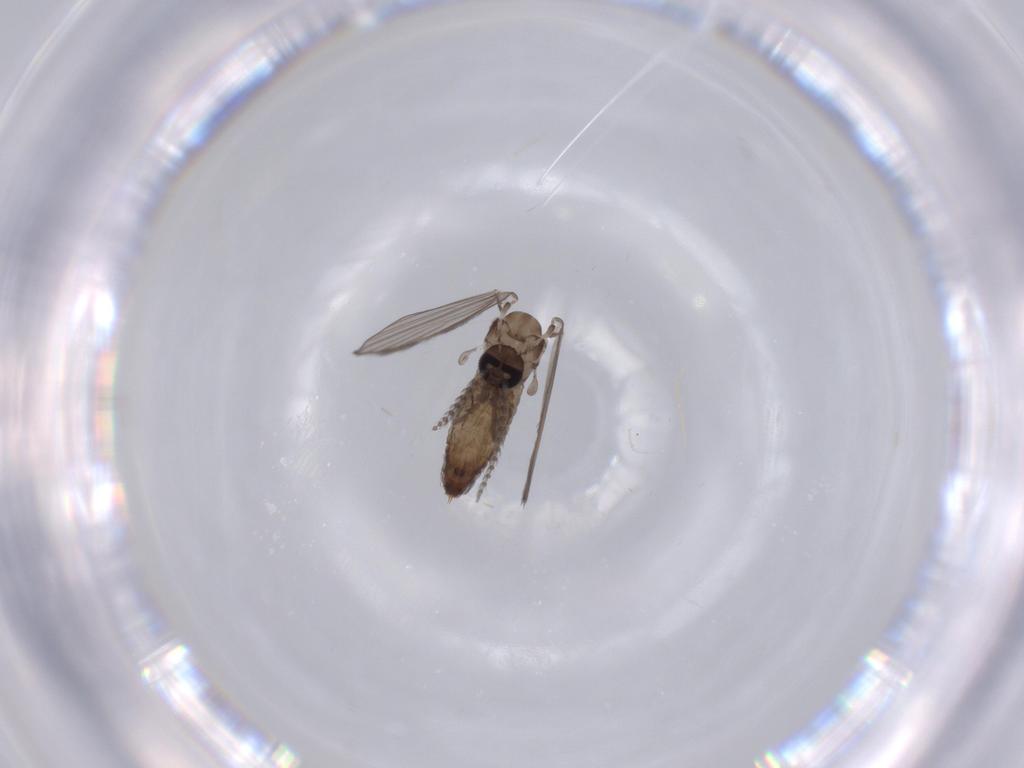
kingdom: Animalia
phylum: Arthropoda
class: Insecta
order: Diptera
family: Psychodidae
